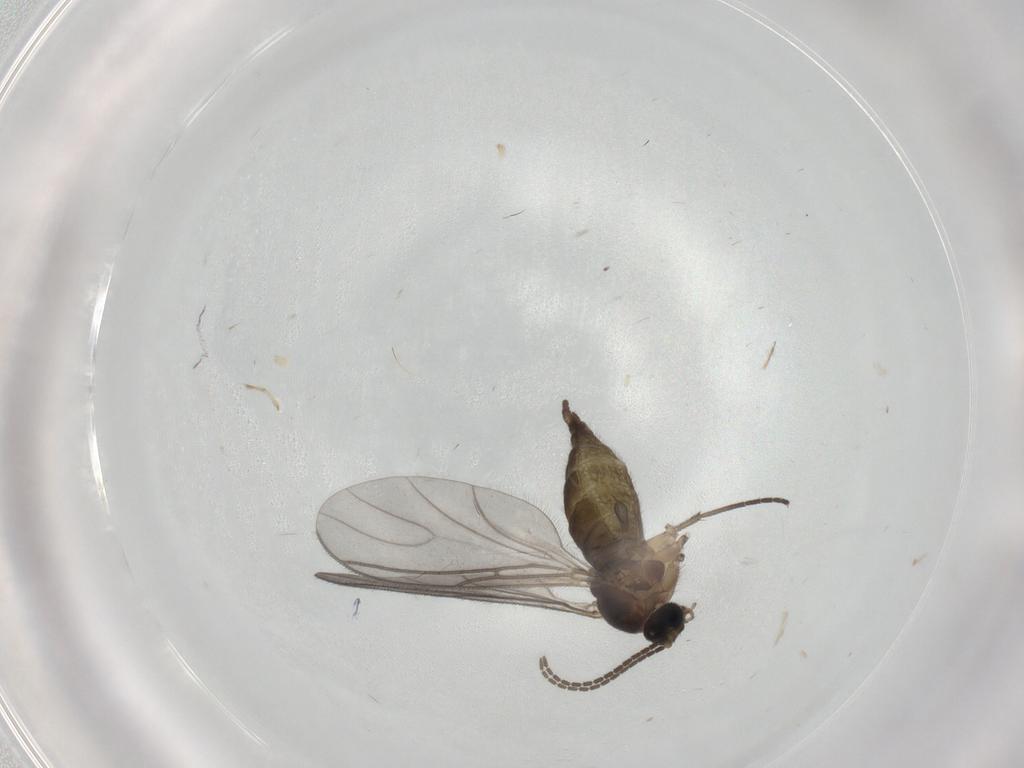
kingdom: Animalia
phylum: Arthropoda
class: Insecta
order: Diptera
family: Sciaridae
